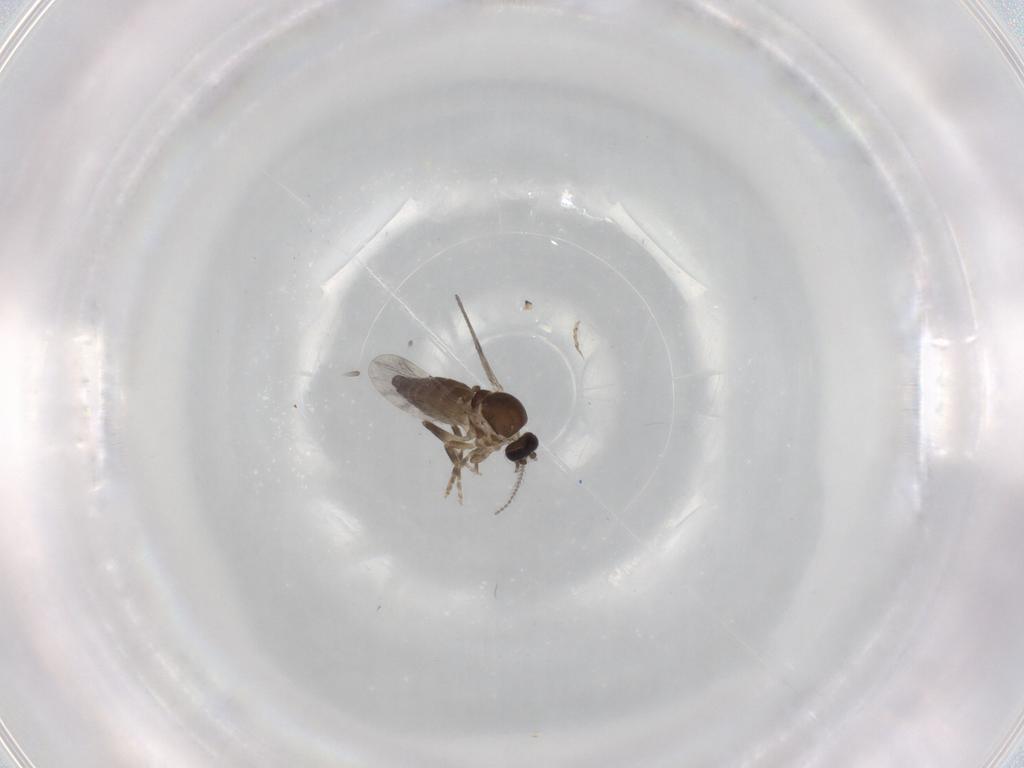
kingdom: Animalia
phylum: Arthropoda
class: Insecta
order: Diptera
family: Ceratopogonidae
